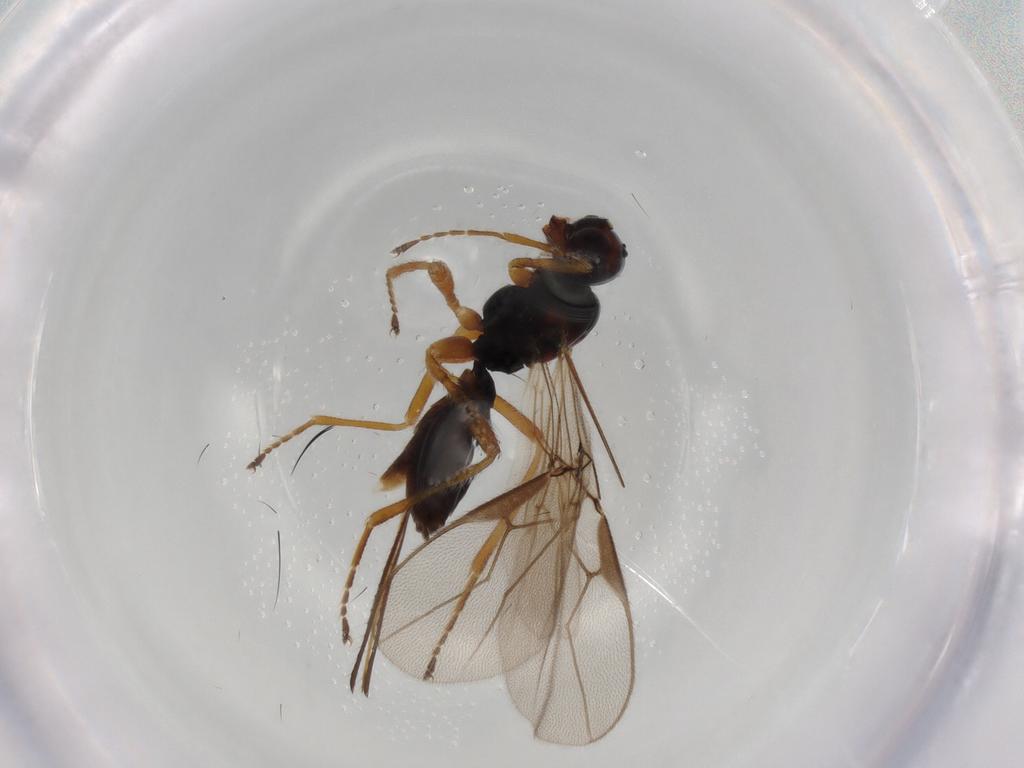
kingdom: Animalia
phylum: Arthropoda
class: Insecta
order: Hymenoptera
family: Braconidae
